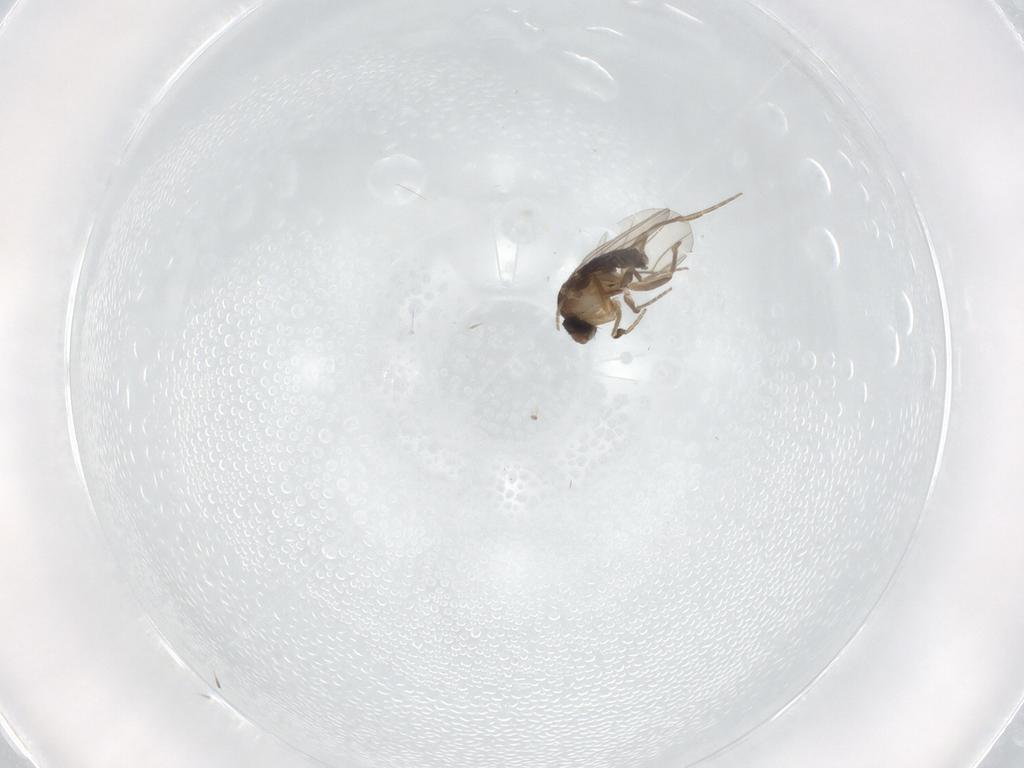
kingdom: Animalia
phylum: Arthropoda
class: Insecta
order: Diptera
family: Phoridae
